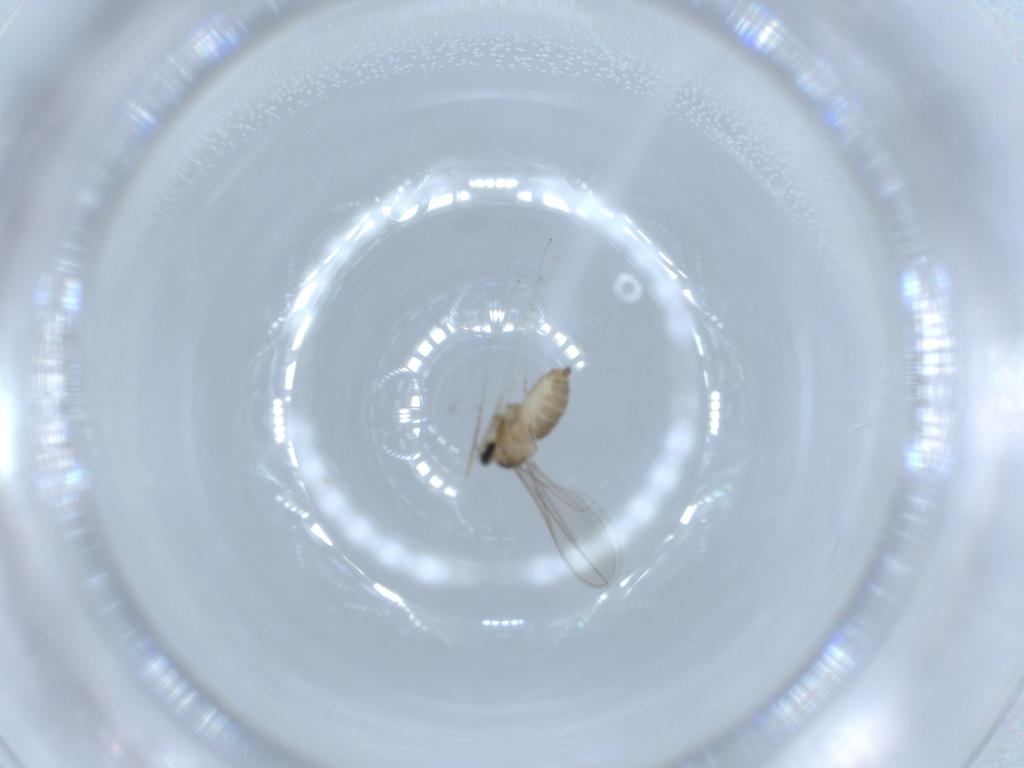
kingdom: Animalia
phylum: Arthropoda
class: Insecta
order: Diptera
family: Cecidomyiidae
